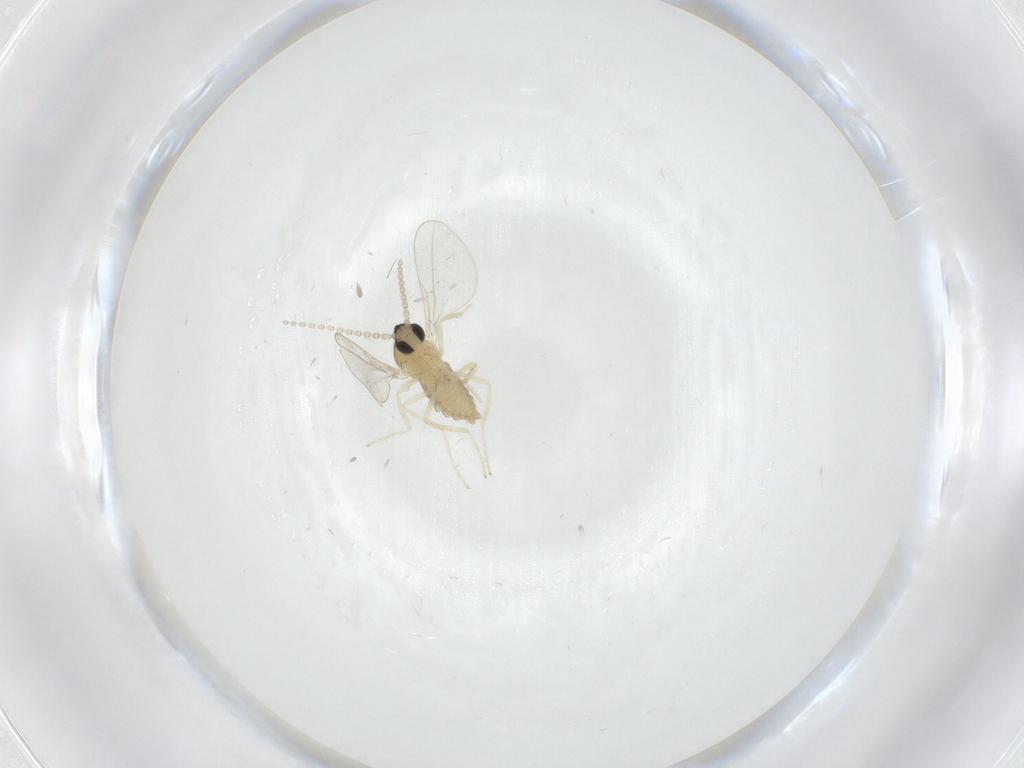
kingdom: Animalia
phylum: Arthropoda
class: Insecta
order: Diptera
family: Cecidomyiidae
